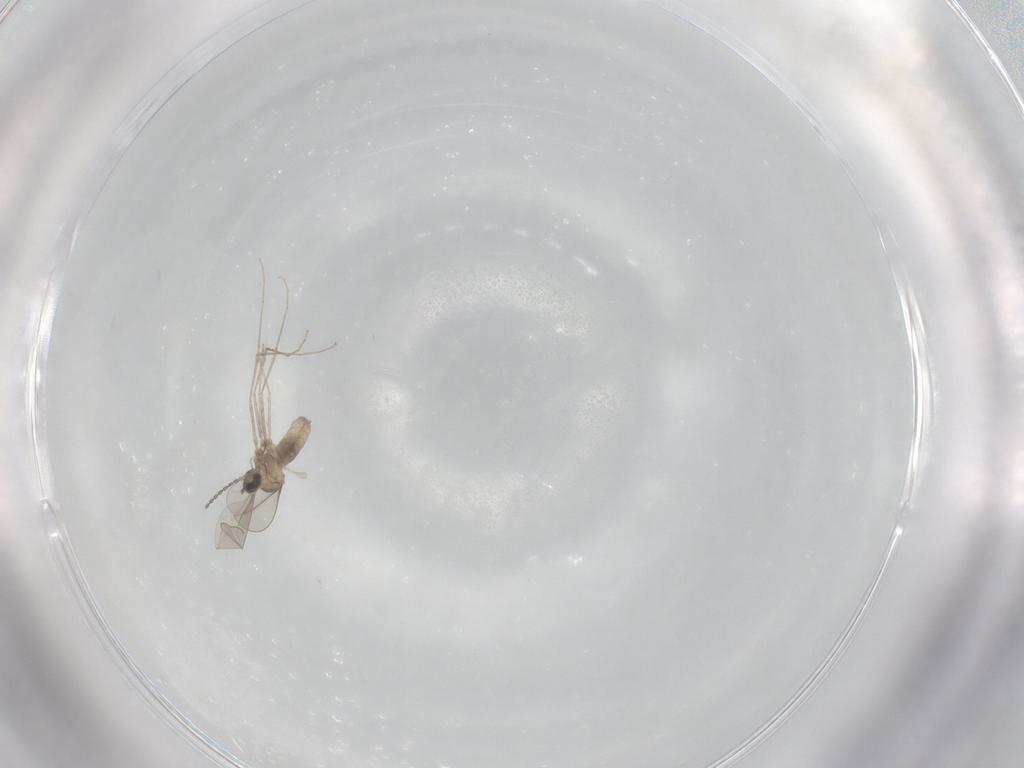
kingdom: Animalia
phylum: Arthropoda
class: Insecta
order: Diptera
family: Cecidomyiidae
